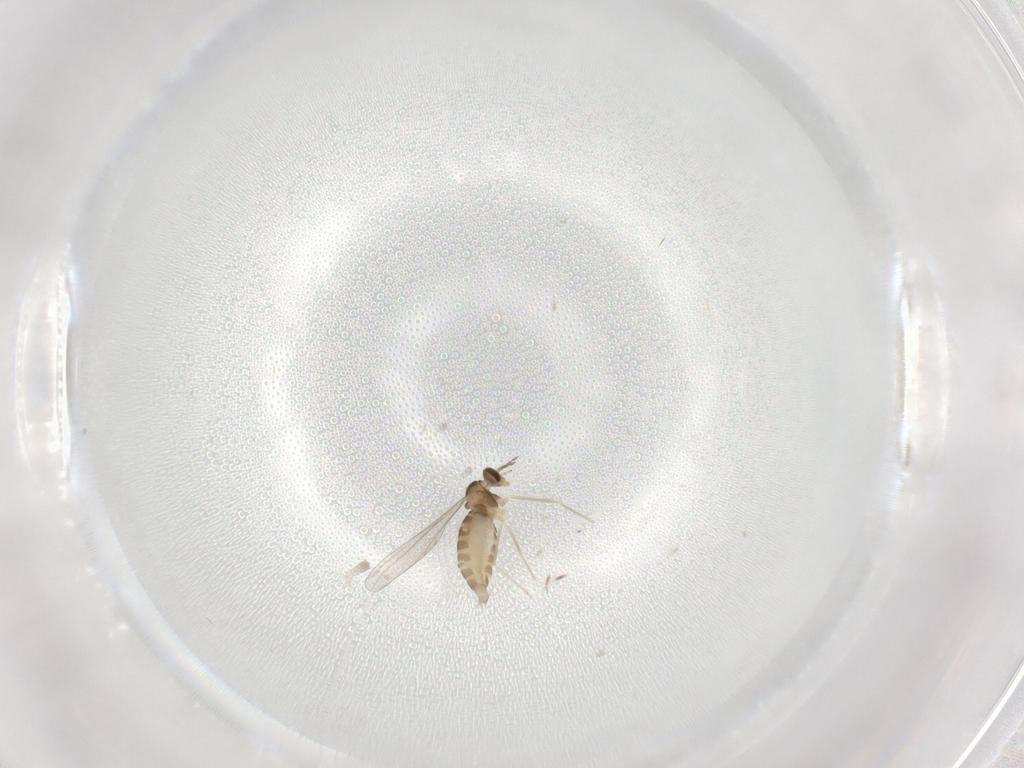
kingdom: Animalia
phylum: Arthropoda
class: Insecta
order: Diptera
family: Cecidomyiidae
